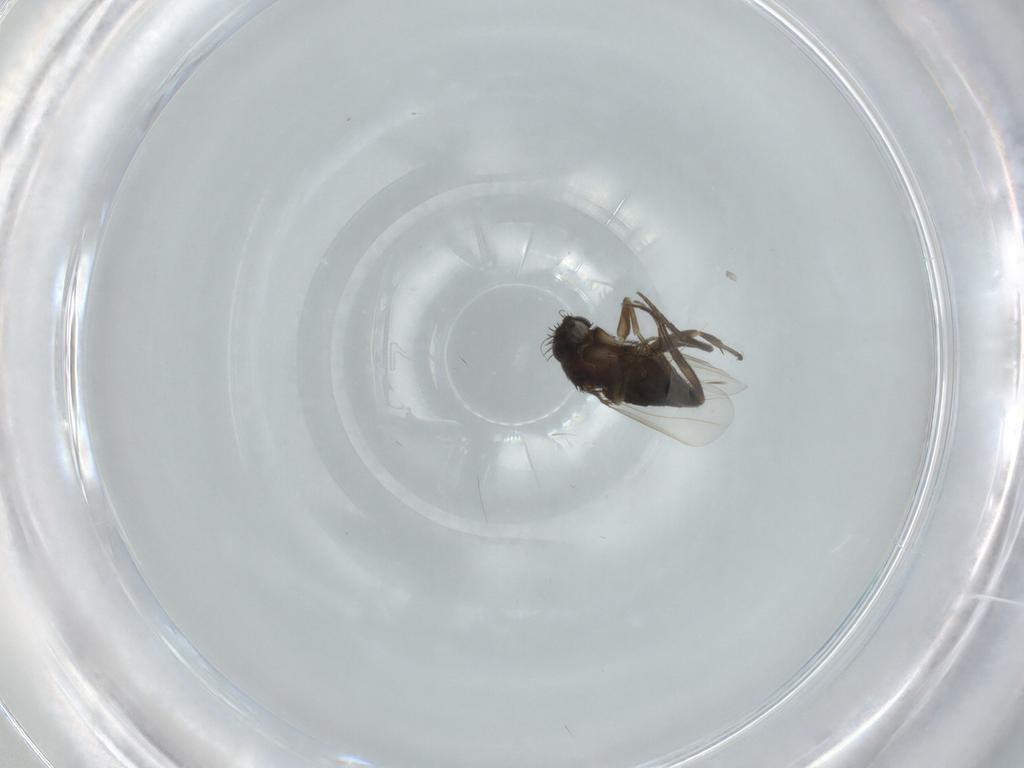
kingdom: Animalia
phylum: Arthropoda
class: Insecta
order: Diptera
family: Phoridae
